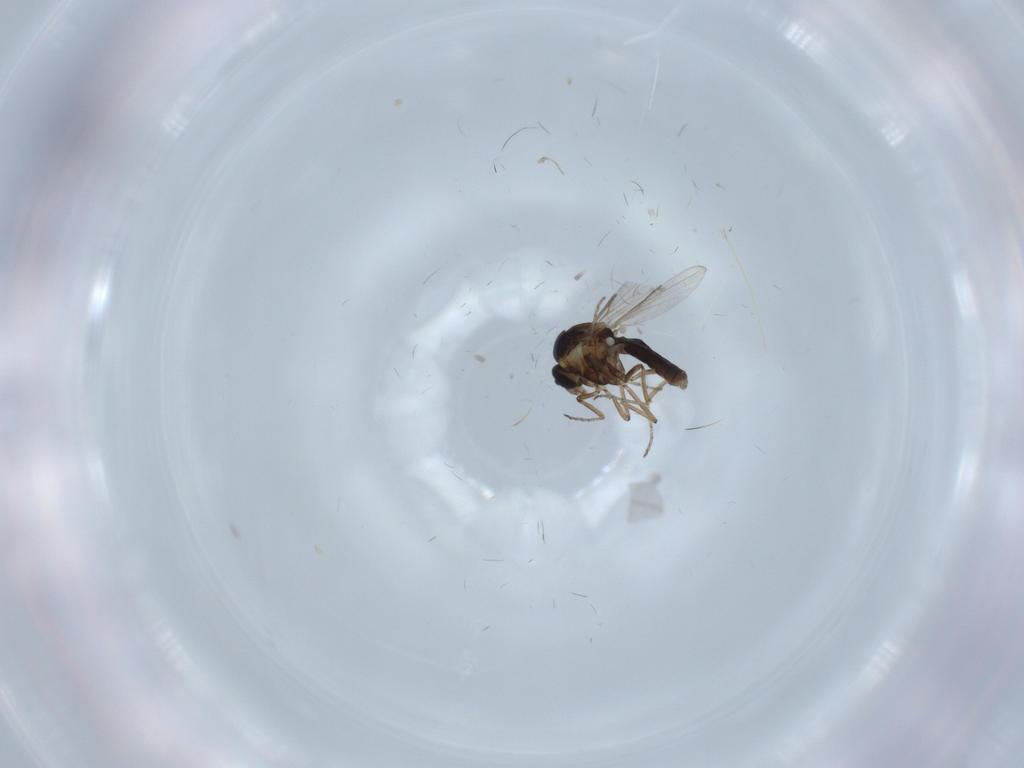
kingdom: Animalia
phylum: Arthropoda
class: Insecta
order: Diptera
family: Ceratopogonidae
